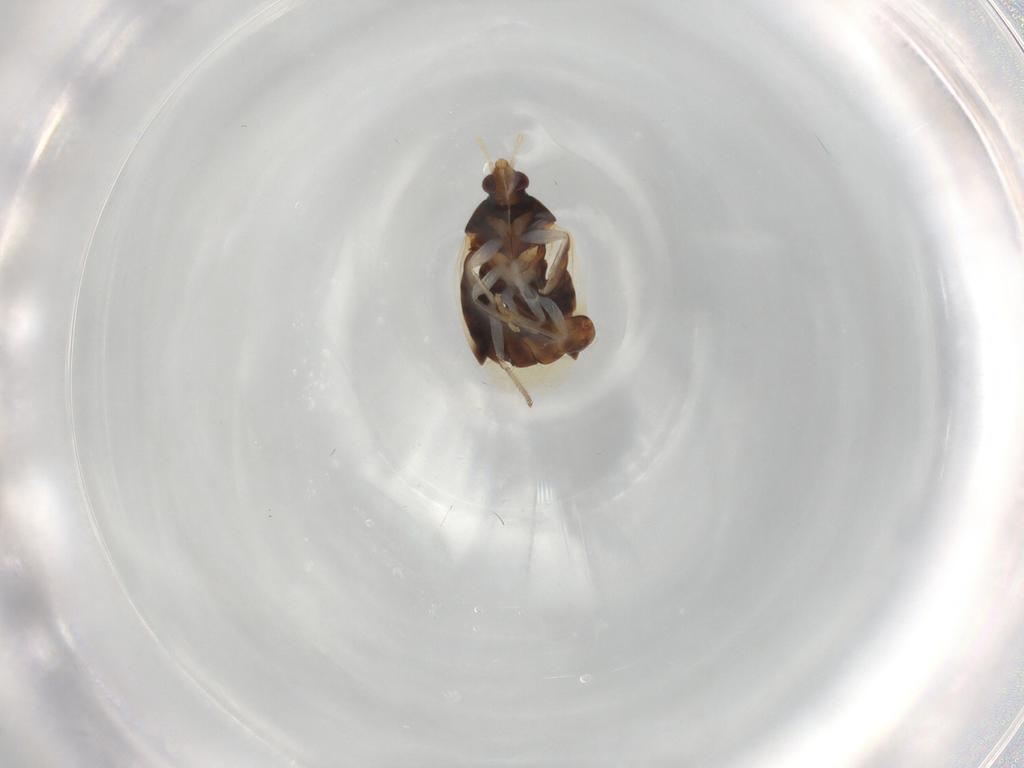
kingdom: Animalia
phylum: Arthropoda
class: Insecta
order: Hemiptera
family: Anthocoridae
